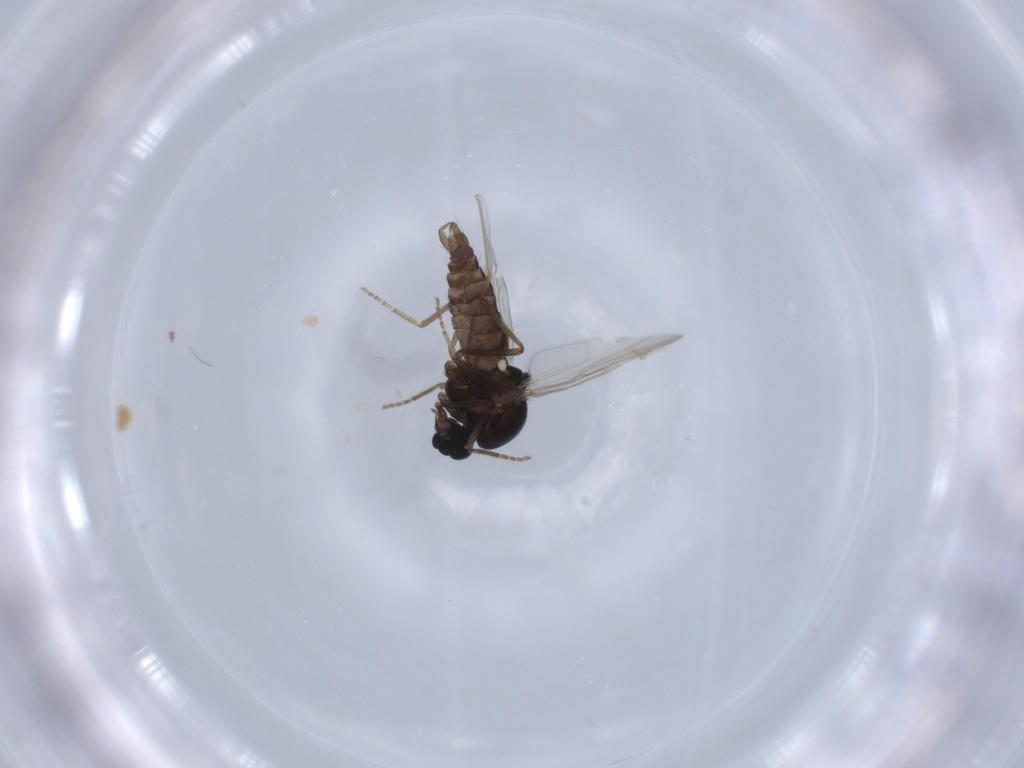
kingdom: Animalia
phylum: Arthropoda
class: Insecta
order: Diptera
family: Ceratopogonidae
